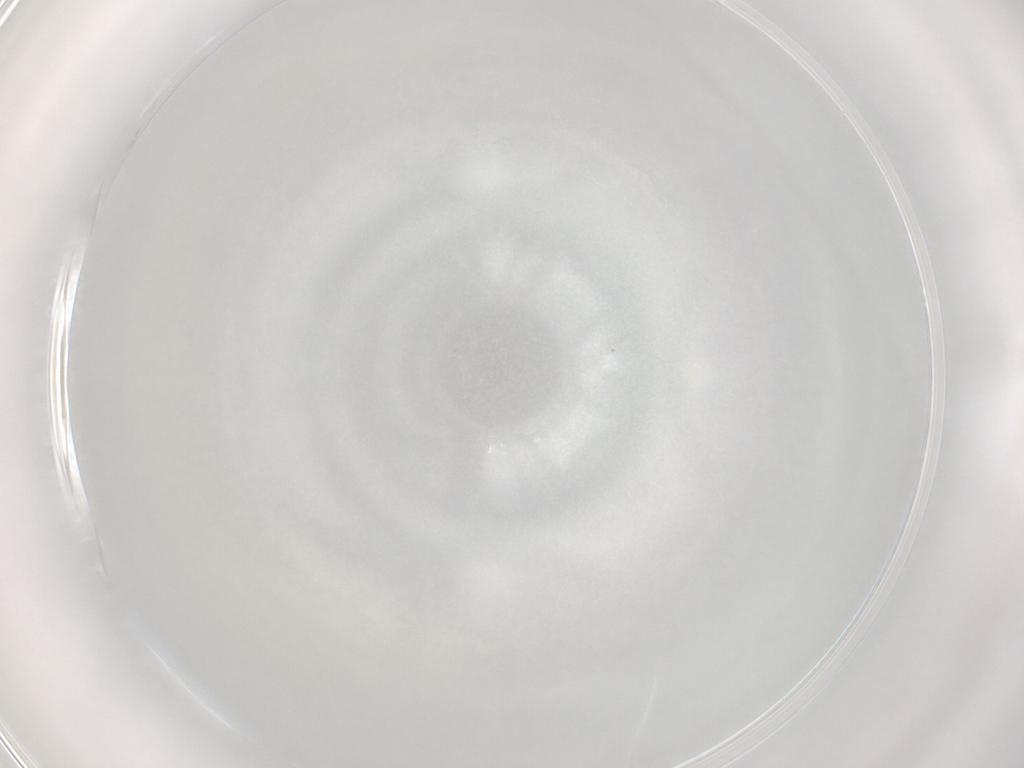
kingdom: Animalia
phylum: Arthropoda
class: Insecta
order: Diptera
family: Chironomidae
